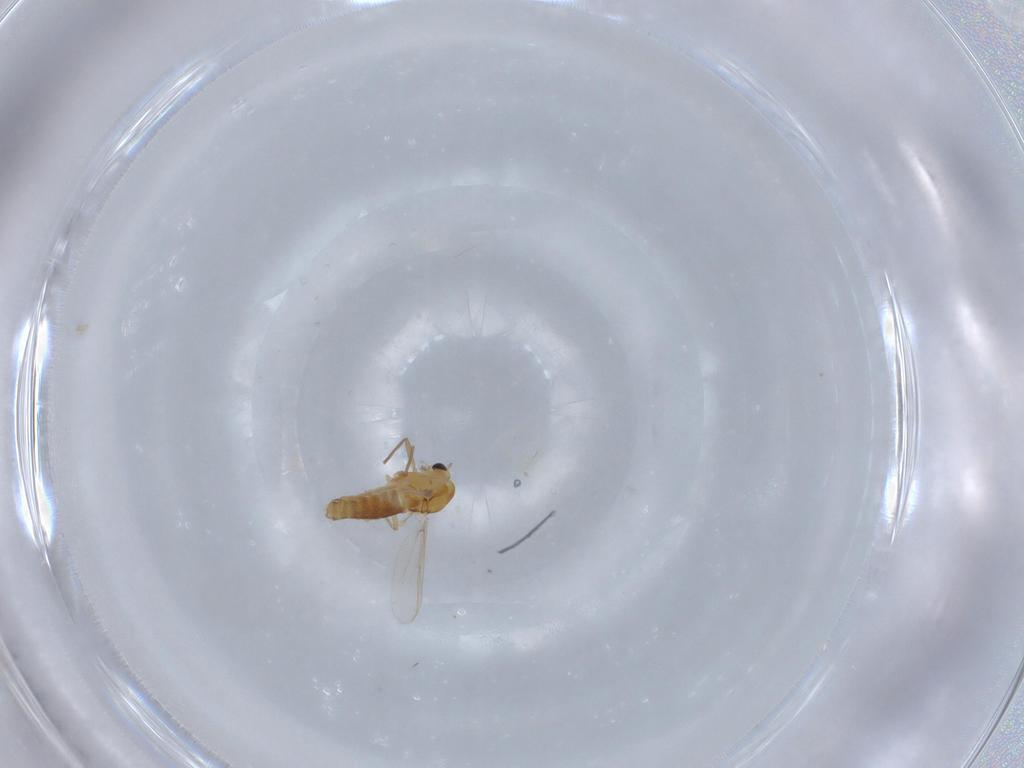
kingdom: Animalia
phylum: Arthropoda
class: Insecta
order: Diptera
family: Chironomidae
